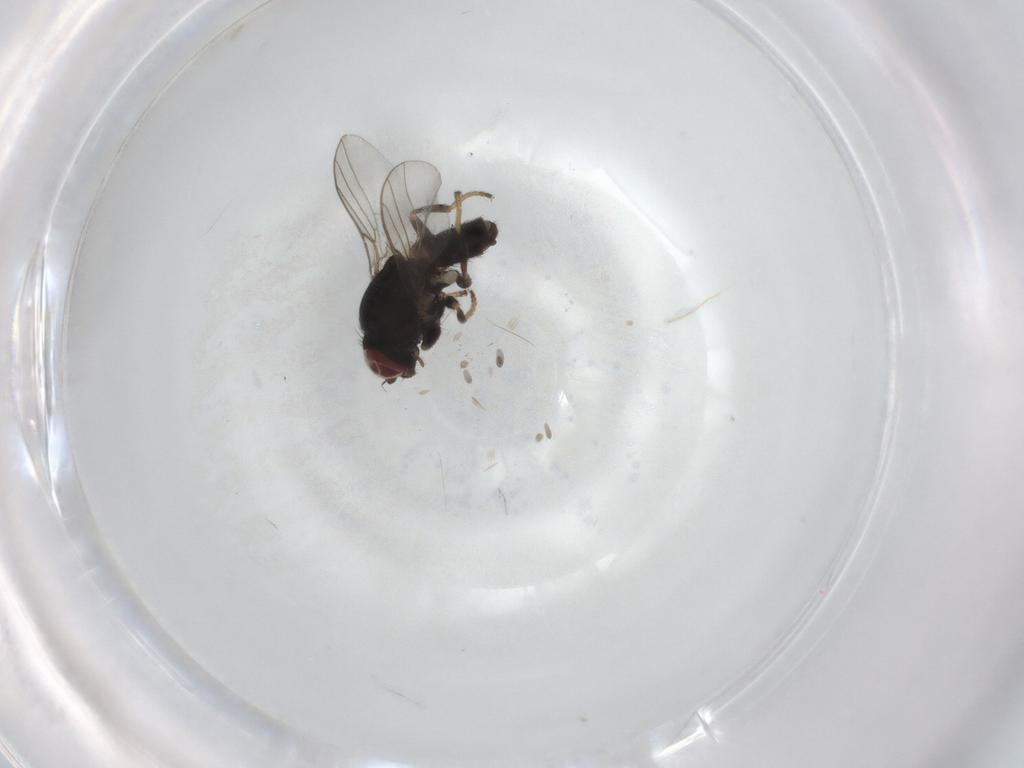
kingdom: Animalia
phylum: Arthropoda
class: Insecta
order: Diptera
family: Chloropidae
